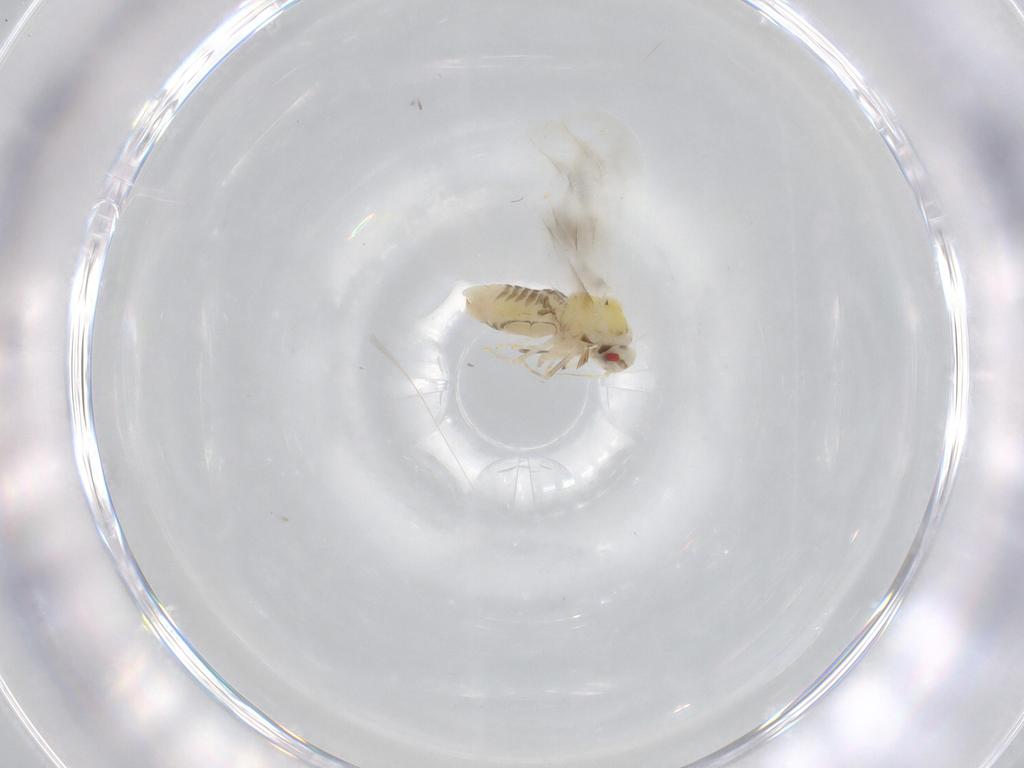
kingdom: Animalia
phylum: Arthropoda
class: Insecta
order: Hemiptera
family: Aleyrodidae
